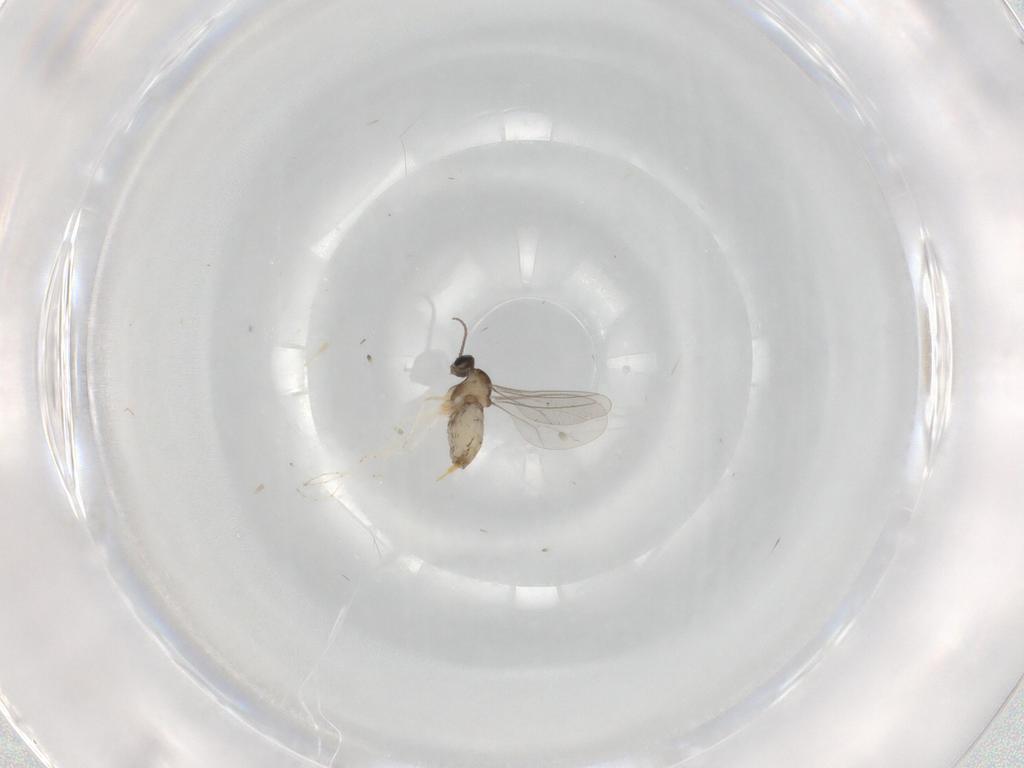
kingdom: Animalia
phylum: Arthropoda
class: Insecta
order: Diptera
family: Cecidomyiidae
